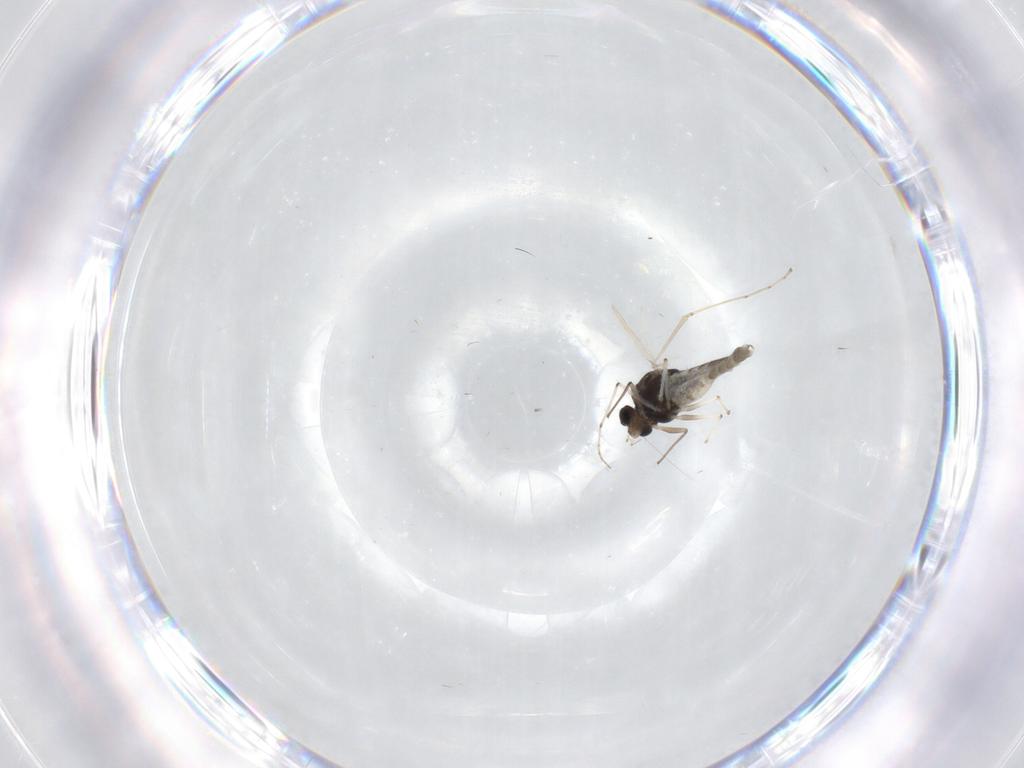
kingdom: Animalia
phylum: Arthropoda
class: Insecta
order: Diptera
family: Chironomidae
